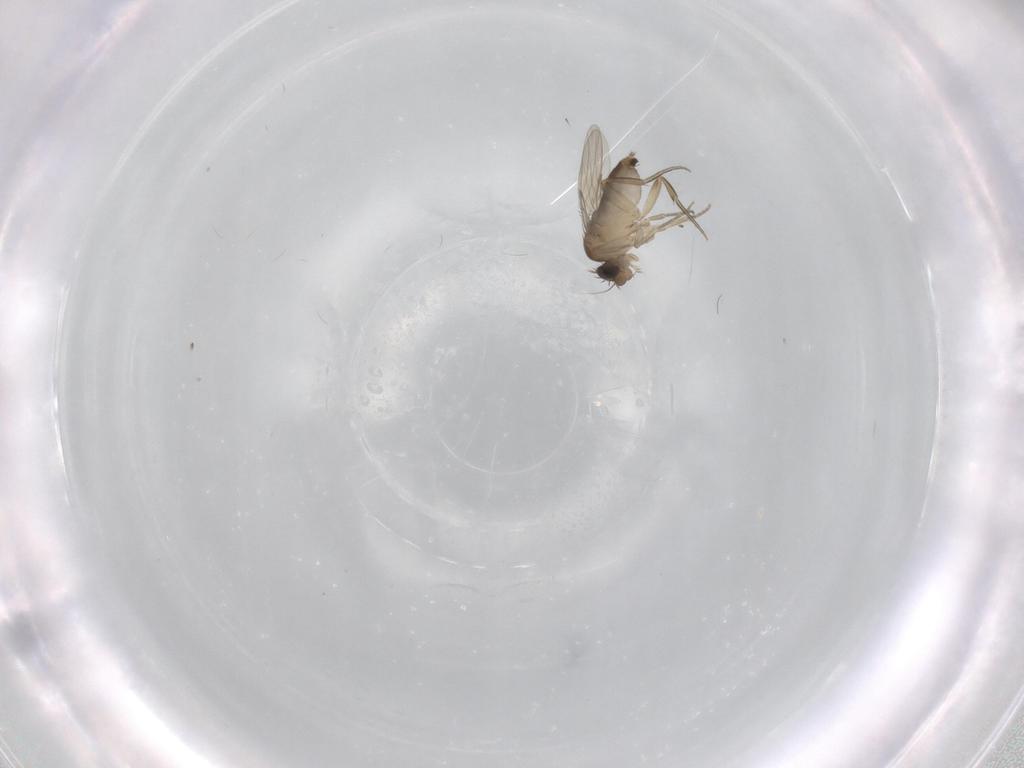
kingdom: Animalia
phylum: Arthropoda
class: Insecta
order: Diptera
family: Phoridae
